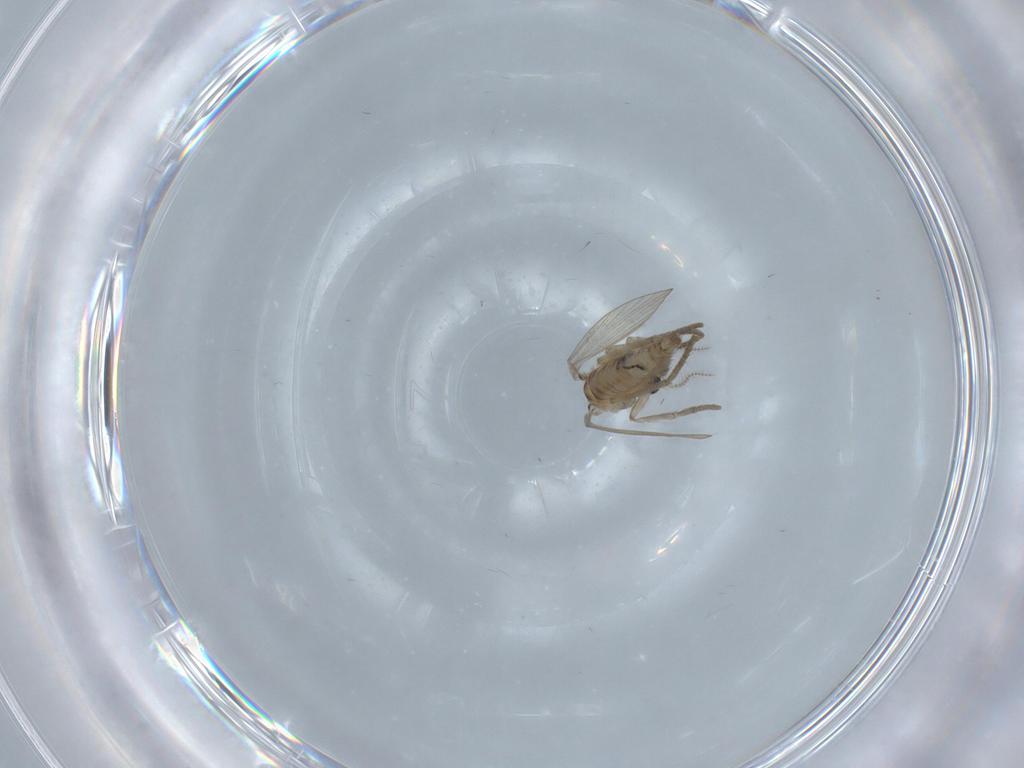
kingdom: Animalia
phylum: Arthropoda
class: Insecta
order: Diptera
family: Psychodidae
